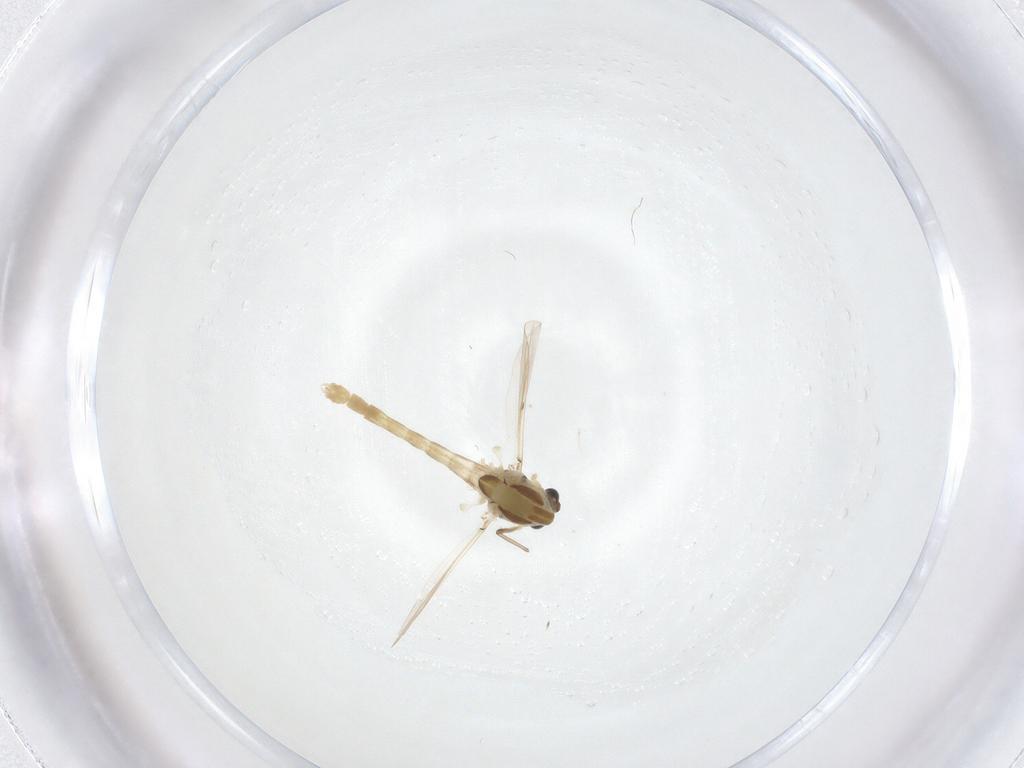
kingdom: Animalia
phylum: Arthropoda
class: Insecta
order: Diptera
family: Chironomidae
